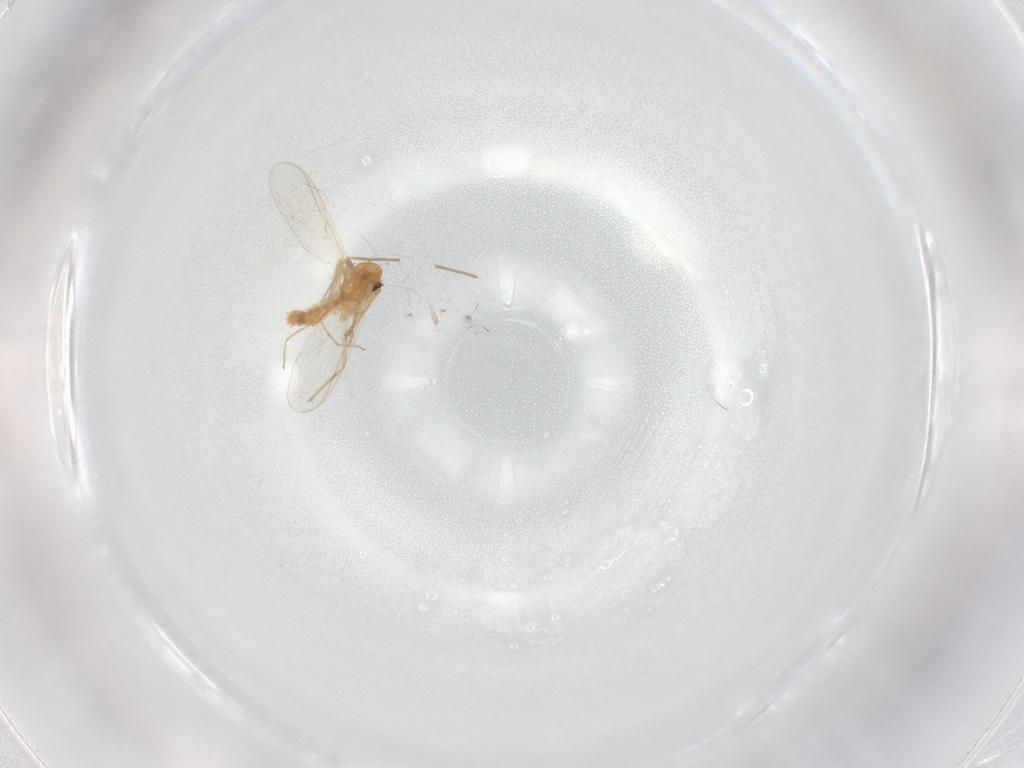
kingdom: Animalia
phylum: Arthropoda
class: Insecta
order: Diptera
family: Chironomidae
